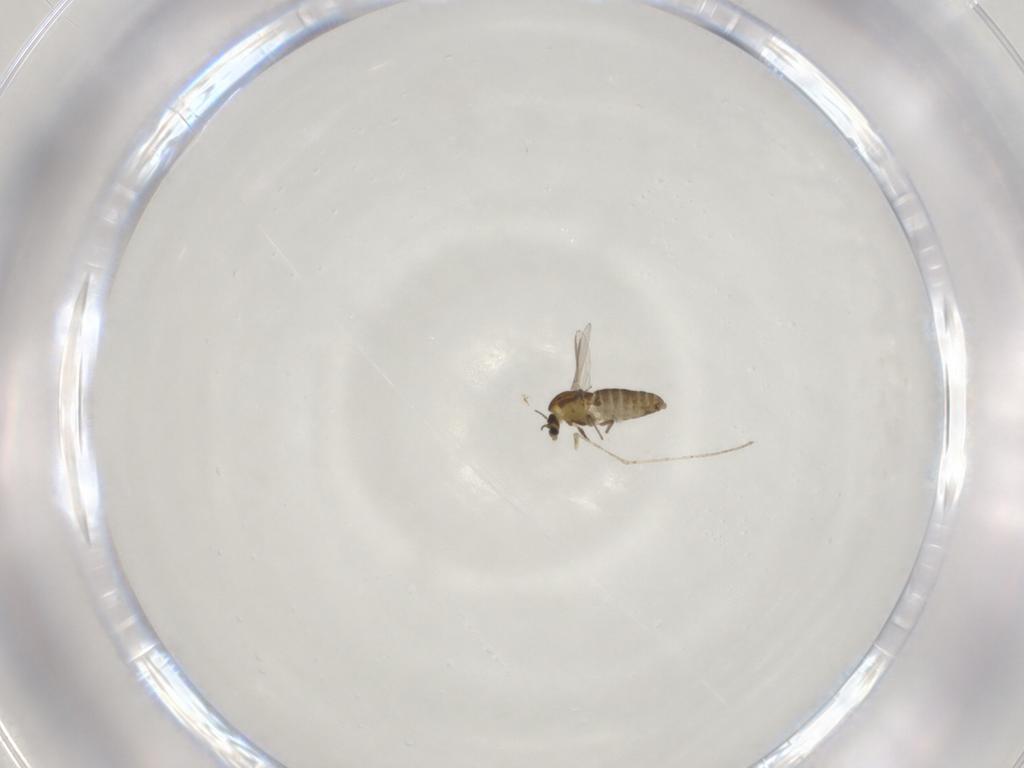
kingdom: Animalia
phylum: Arthropoda
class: Insecta
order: Diptera
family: Chironomidae
